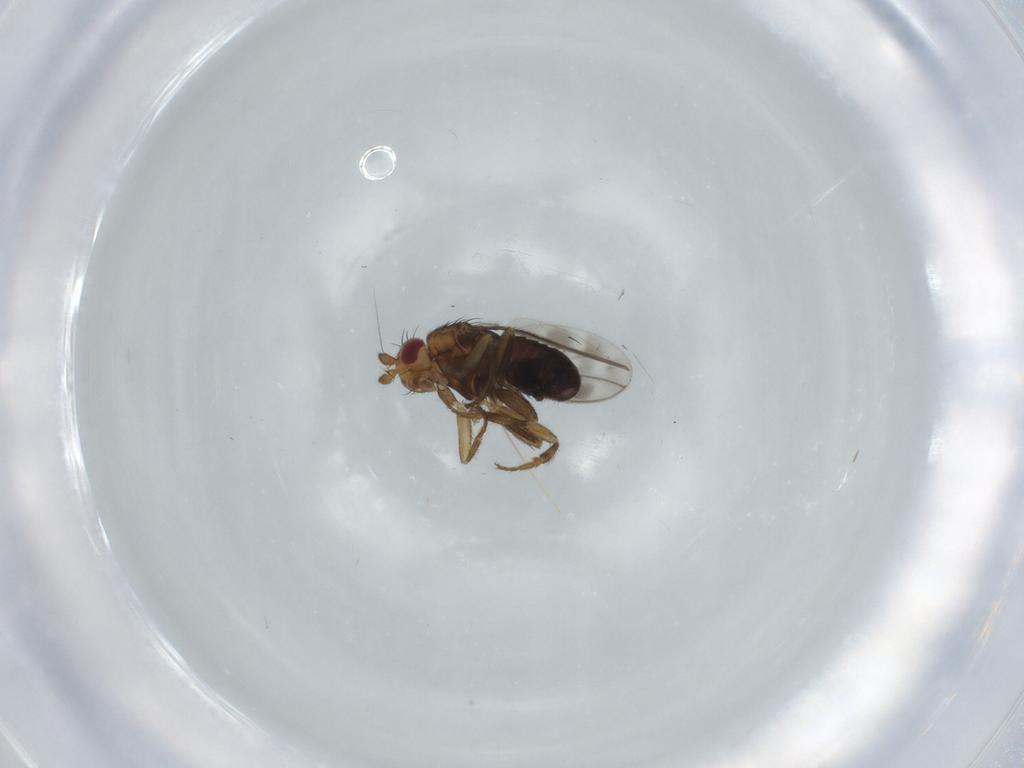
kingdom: Animalia
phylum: Arthropoda
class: Insecta
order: Diptera
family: Sphaeroceridae
